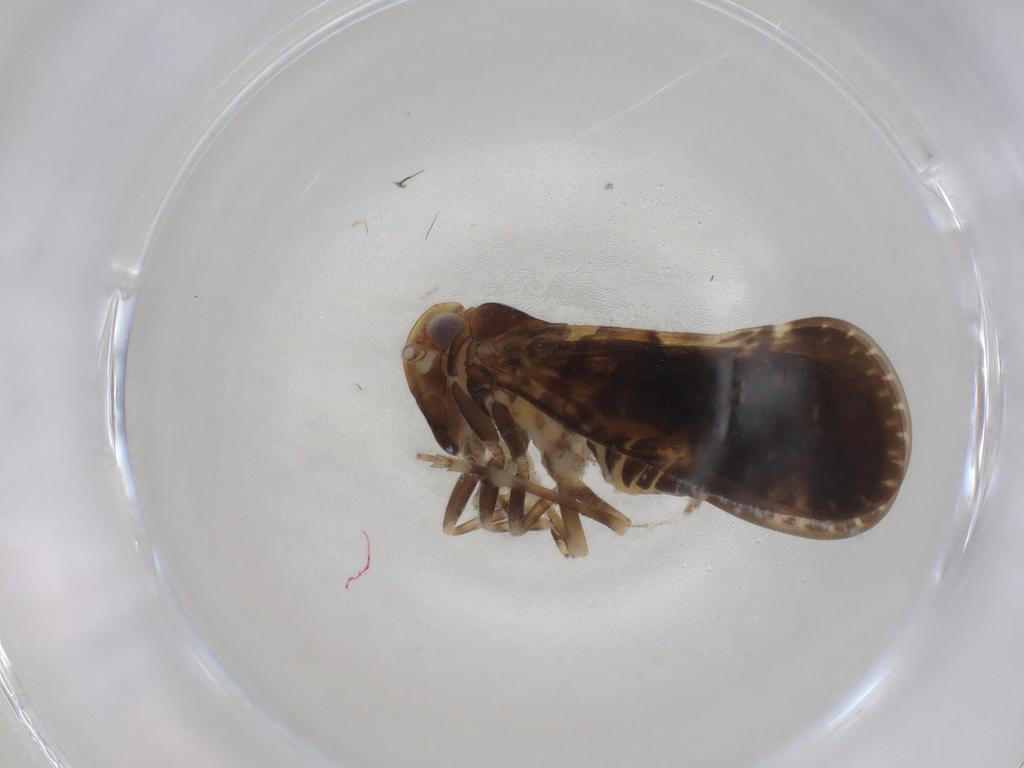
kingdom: Animalia
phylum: Arthropoda
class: Insecta
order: Hemiptera
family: Cixiidae
